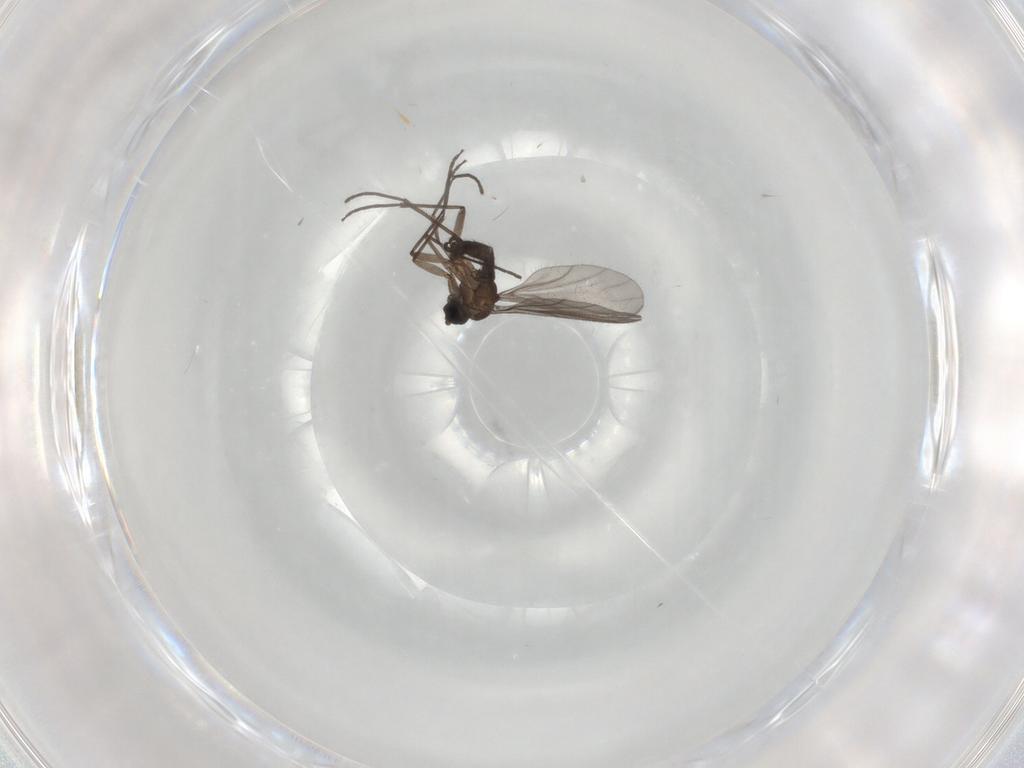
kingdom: Animalia
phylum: Arthropoda
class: Insecta
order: Diptera
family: Sciaridae
